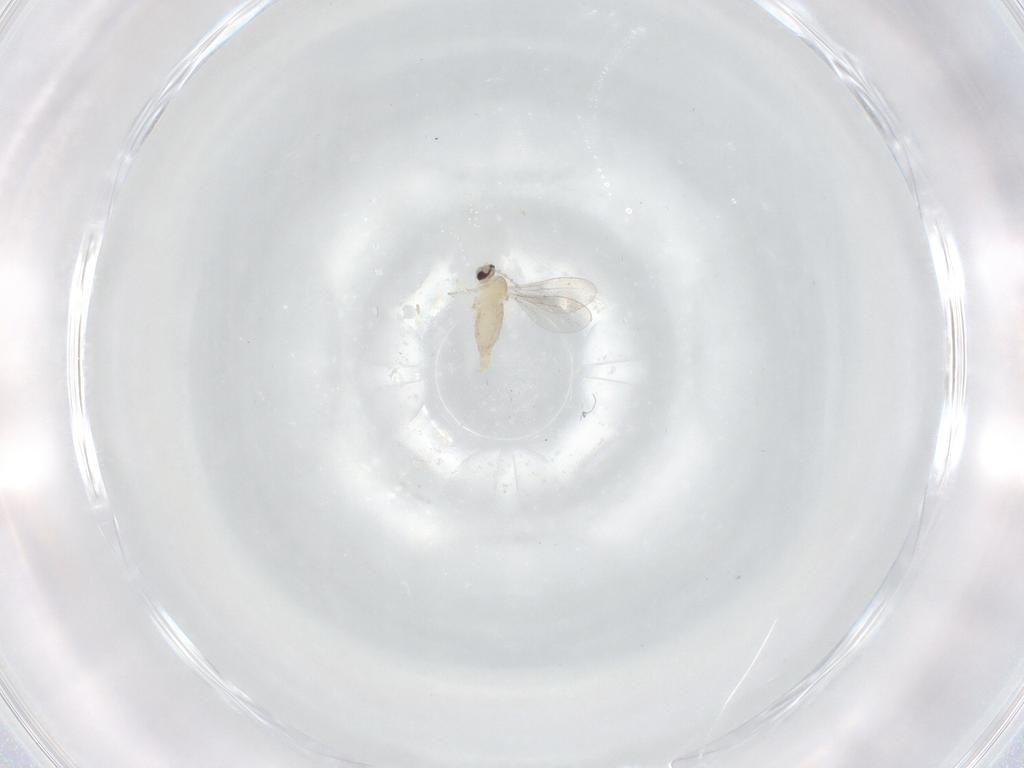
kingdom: Animalia
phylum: Arthropoda
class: Insecta
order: Diptera
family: Cecidomyiidae
